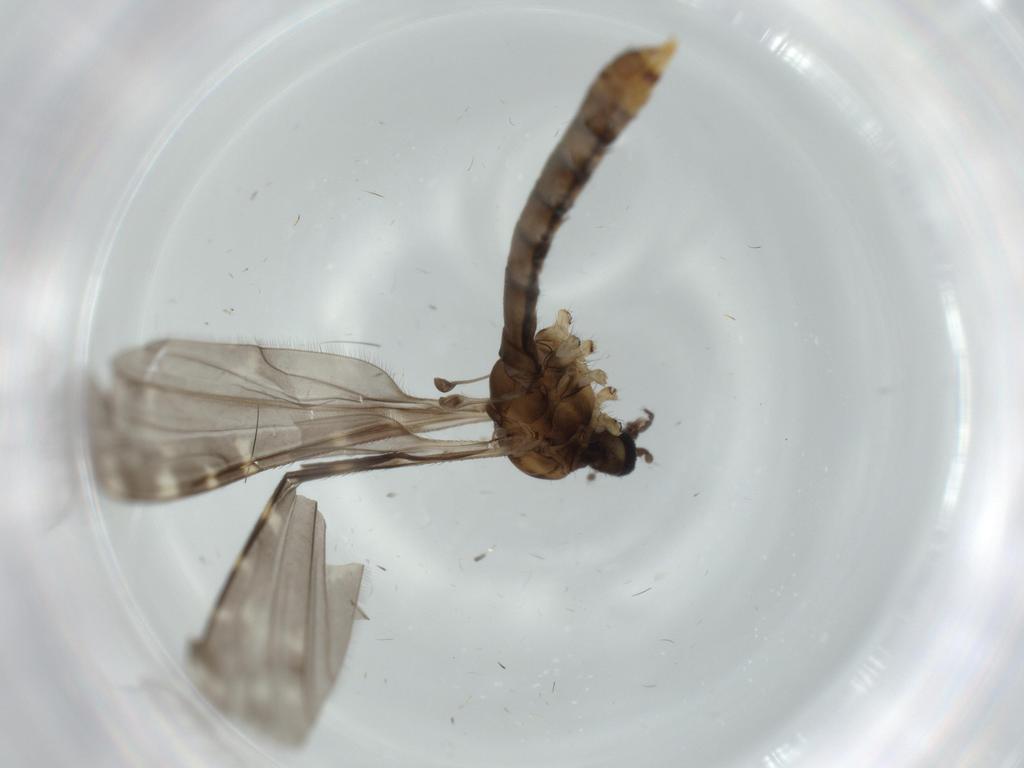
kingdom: Animalia
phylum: Arthropoda
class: Insecta
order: Diptera
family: Limoniidae
